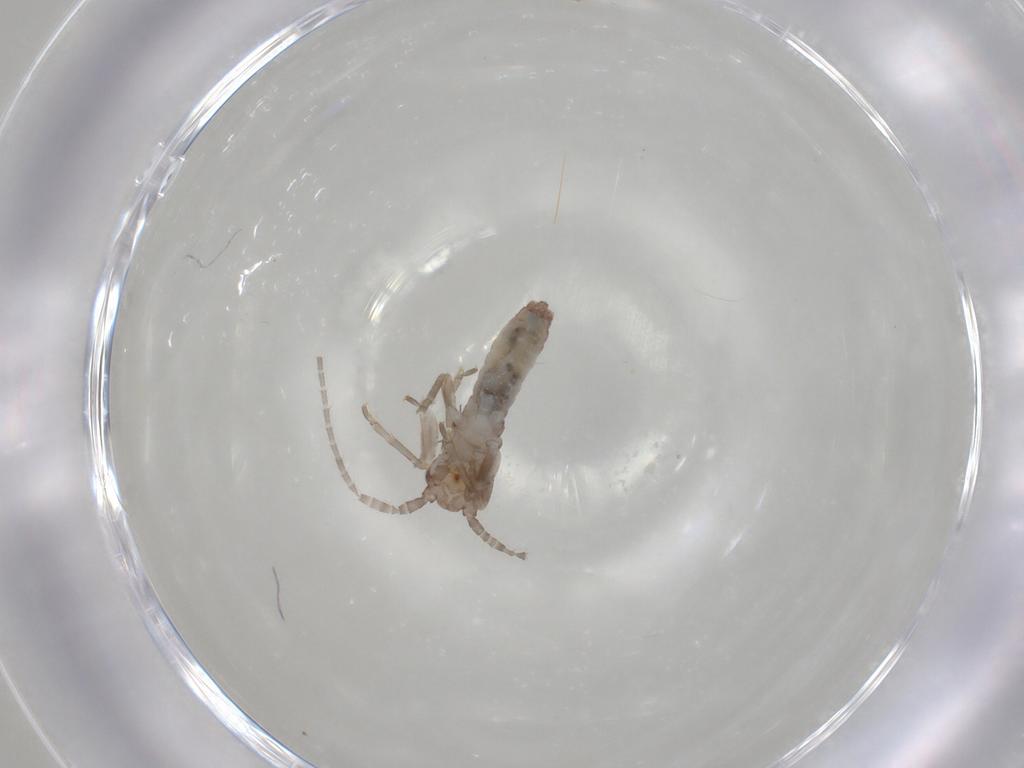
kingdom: Animalia
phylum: Arthropoda
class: Insecta
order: Orthoptera
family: Mogoplistidae
